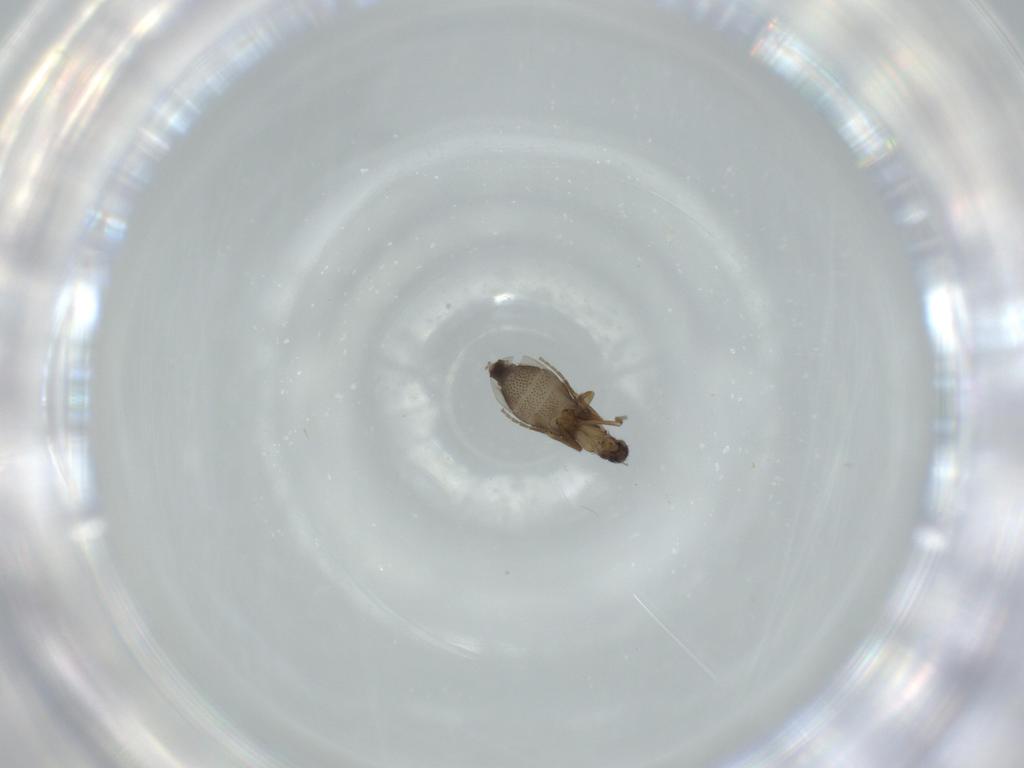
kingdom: Animalia
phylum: Arthropoda
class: Insecta
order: Diptera
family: Phoridae
